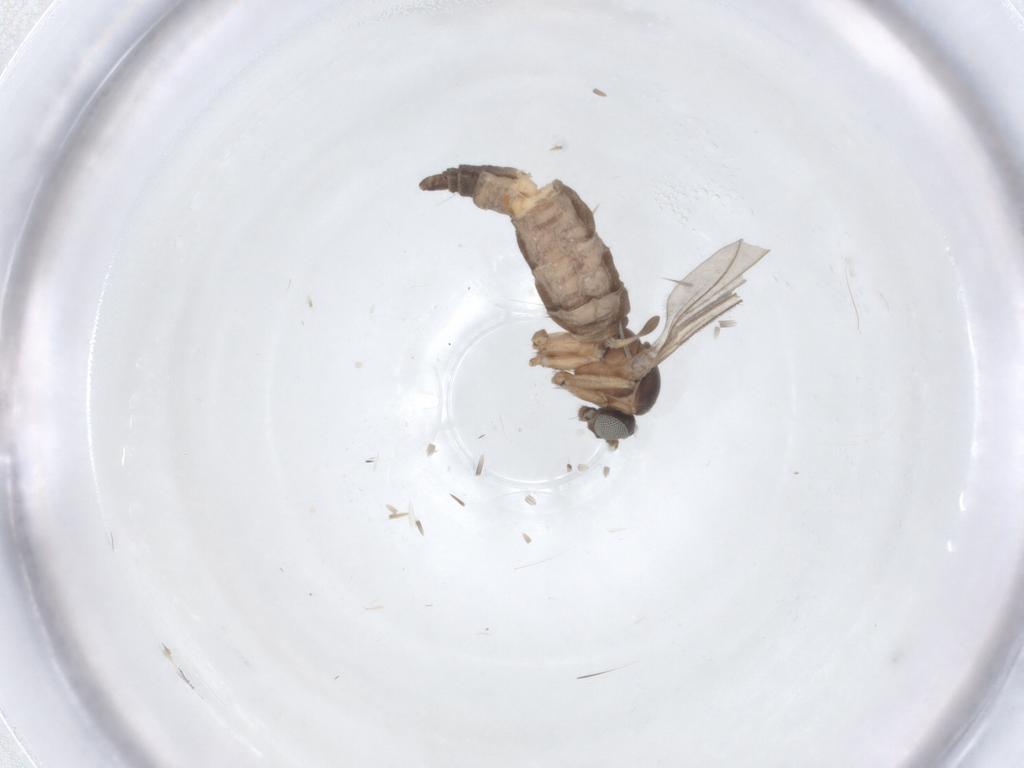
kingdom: Animalia
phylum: Arthropoda
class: Insecta
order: Diptera
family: Sciaridae
